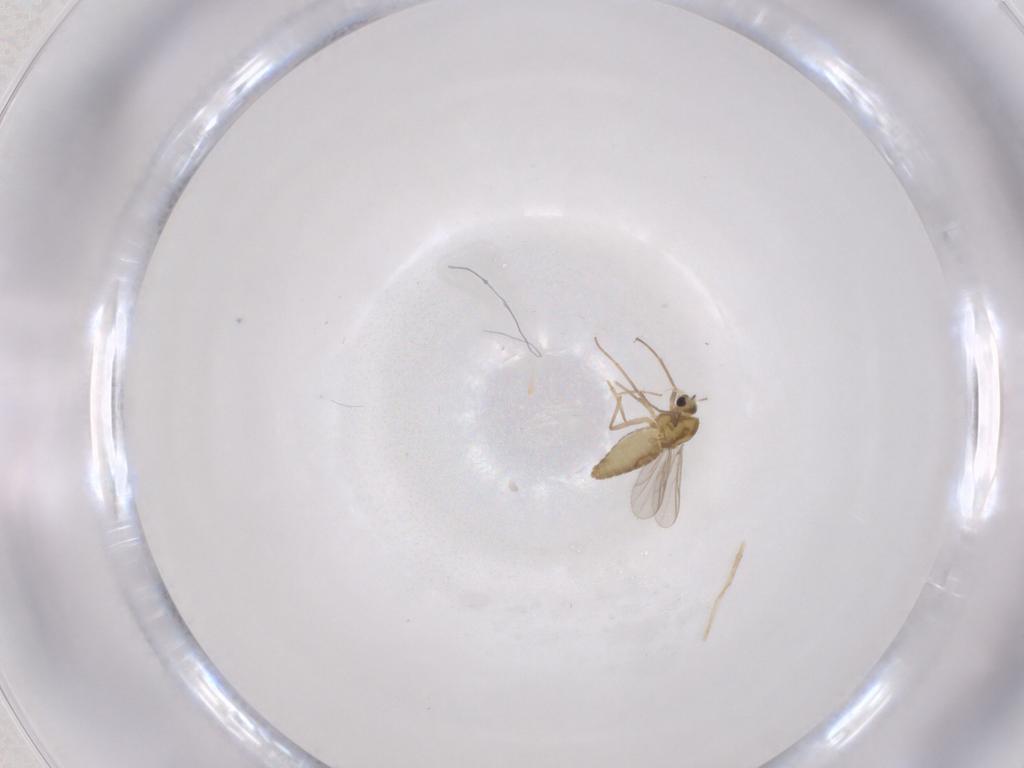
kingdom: Animalia
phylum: Arthropoda
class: Insecta
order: Diptera
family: Chironomidae
